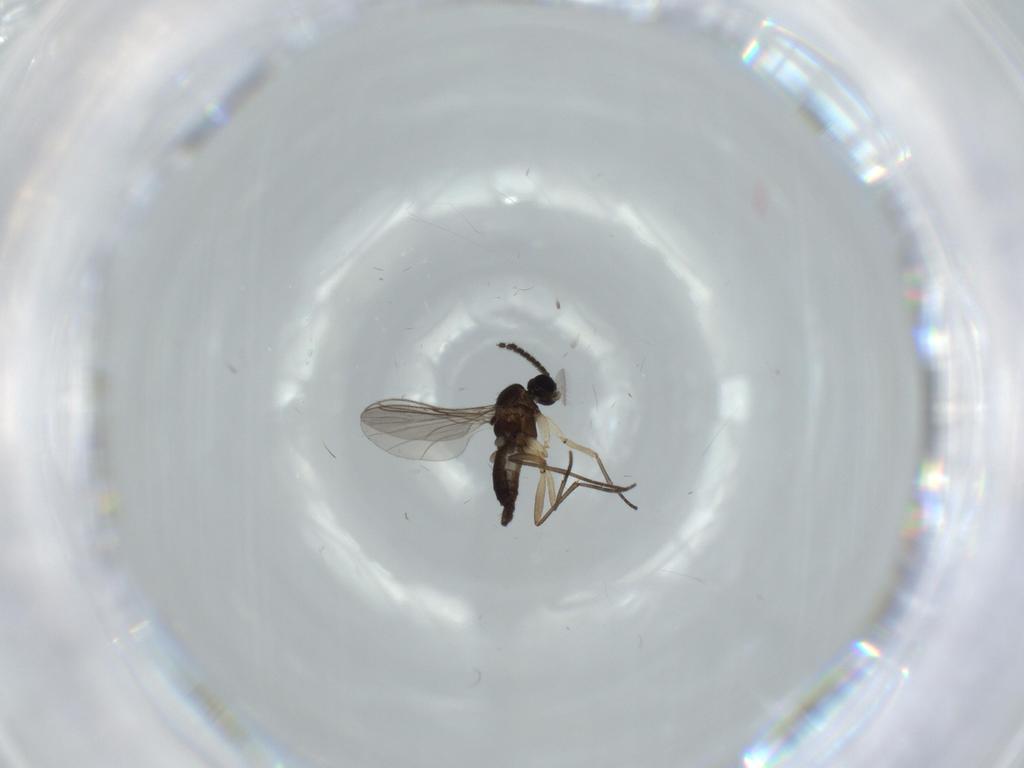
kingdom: Animalia
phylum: Arthropoda
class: Insecta
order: Diptera
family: Sciaridae
